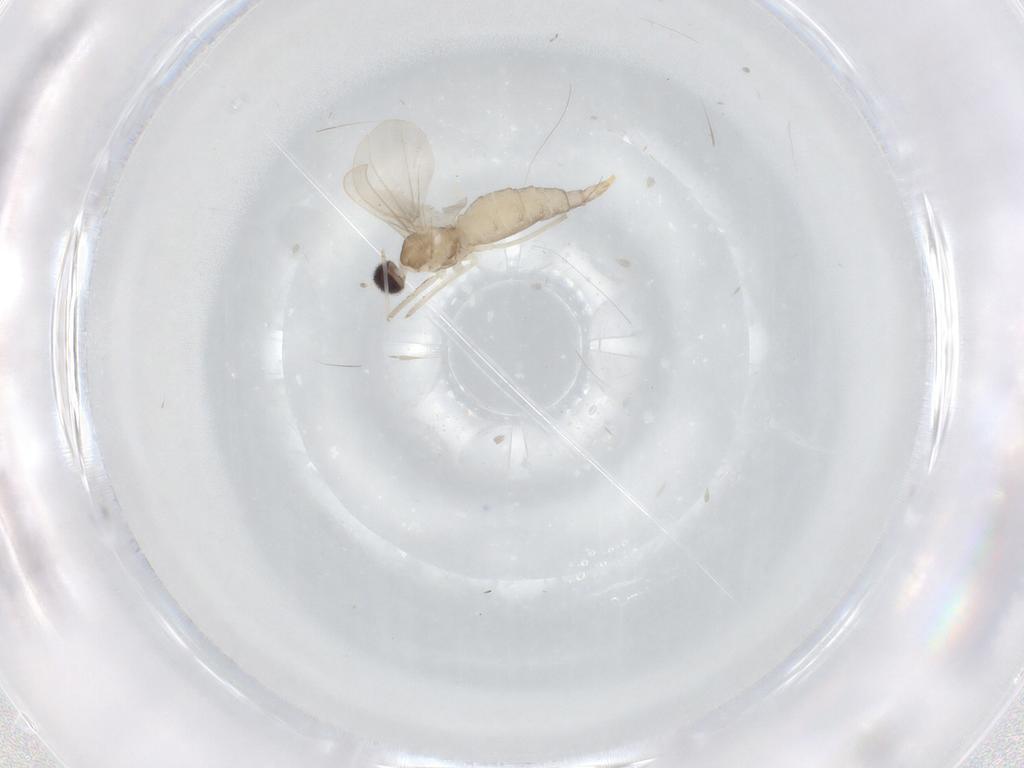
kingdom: Animalia
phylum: Arthropoda
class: Insecta
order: Diptera
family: Cecidomyiidae
